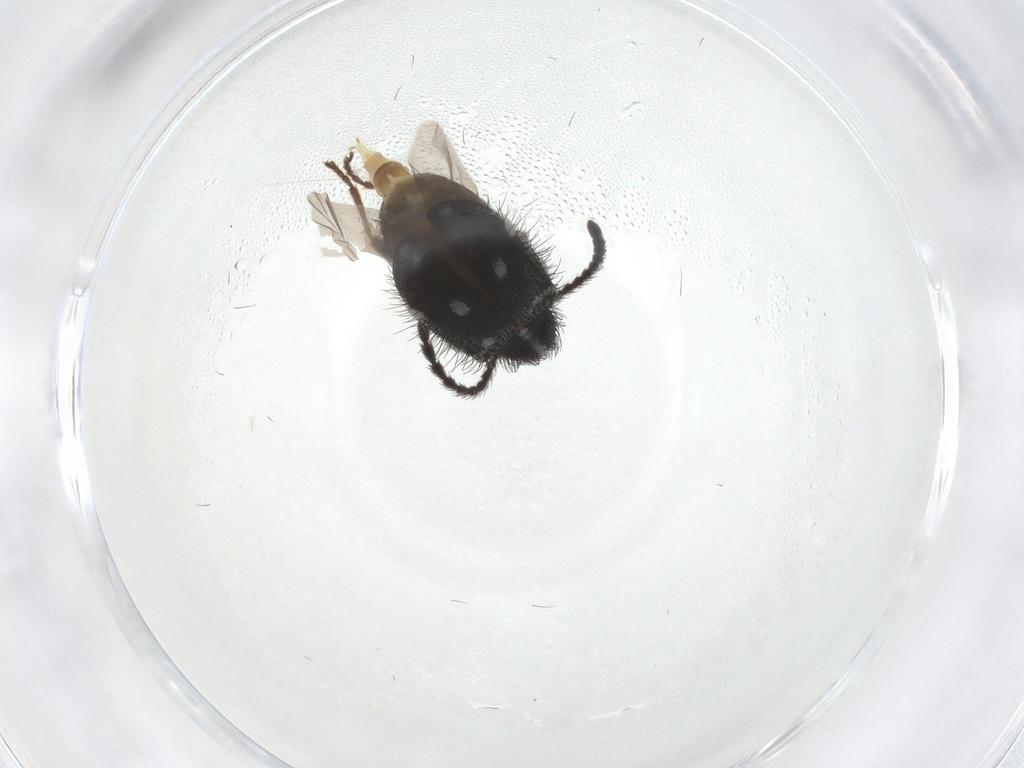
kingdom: Animalia
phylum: Arthropoda
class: Insecta
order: Coleoptera
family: Ptinidae
